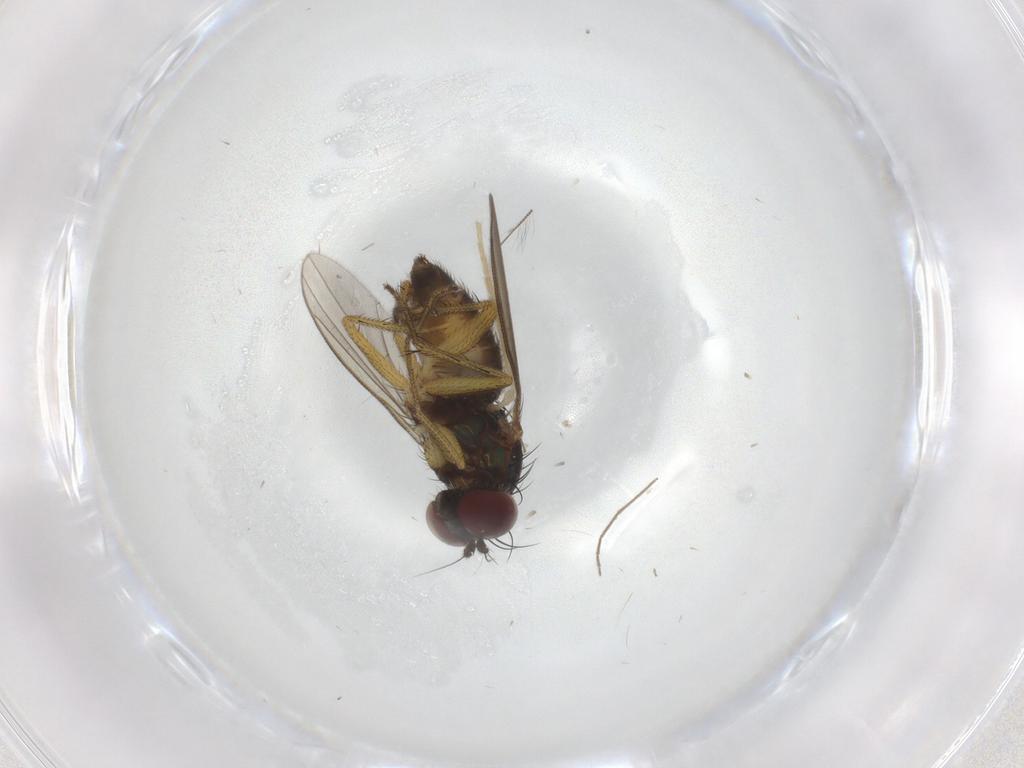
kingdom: Animalia
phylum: Arthropoda
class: Insecta
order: Diptera
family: Dolichopodidae
